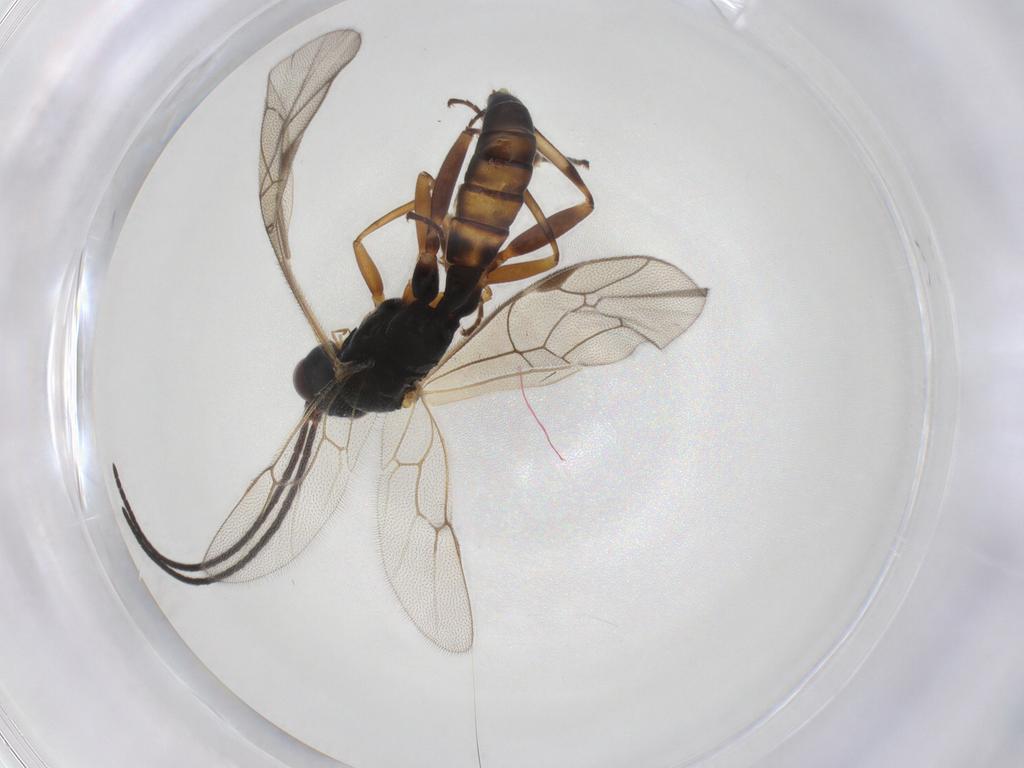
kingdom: Animalia
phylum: Arthropoda
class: Insecta
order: Hymenoptera
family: Ichneumonidae
